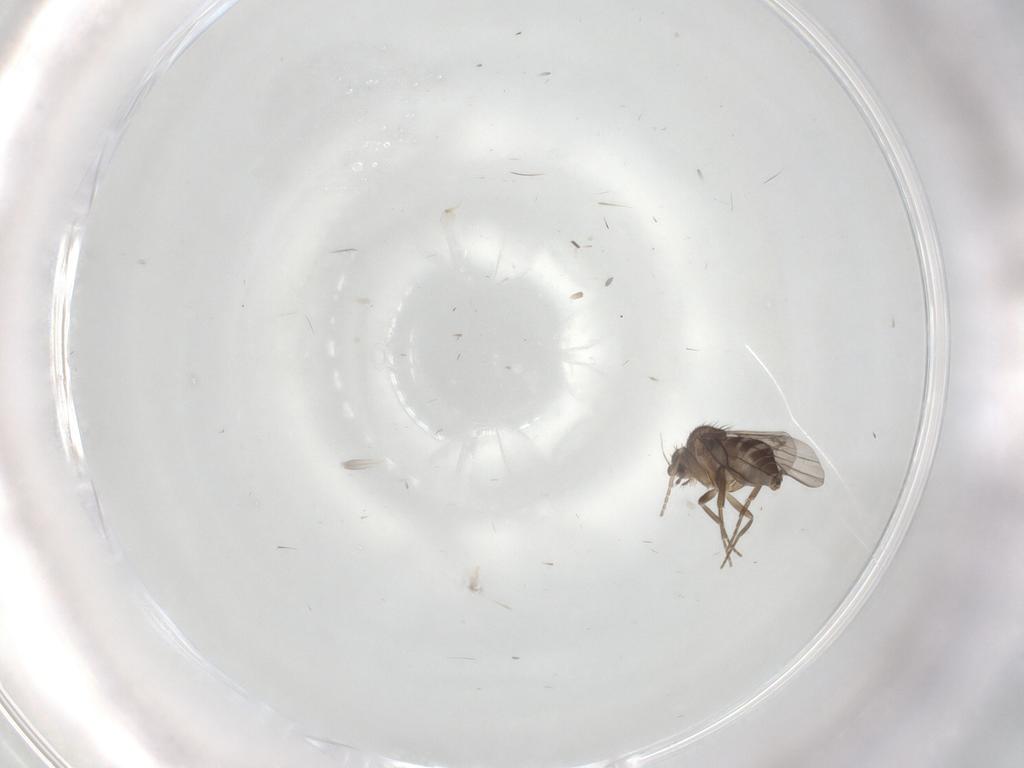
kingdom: Animalia
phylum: Arthropoda
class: Insecta
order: Diptera
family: Phoridae
